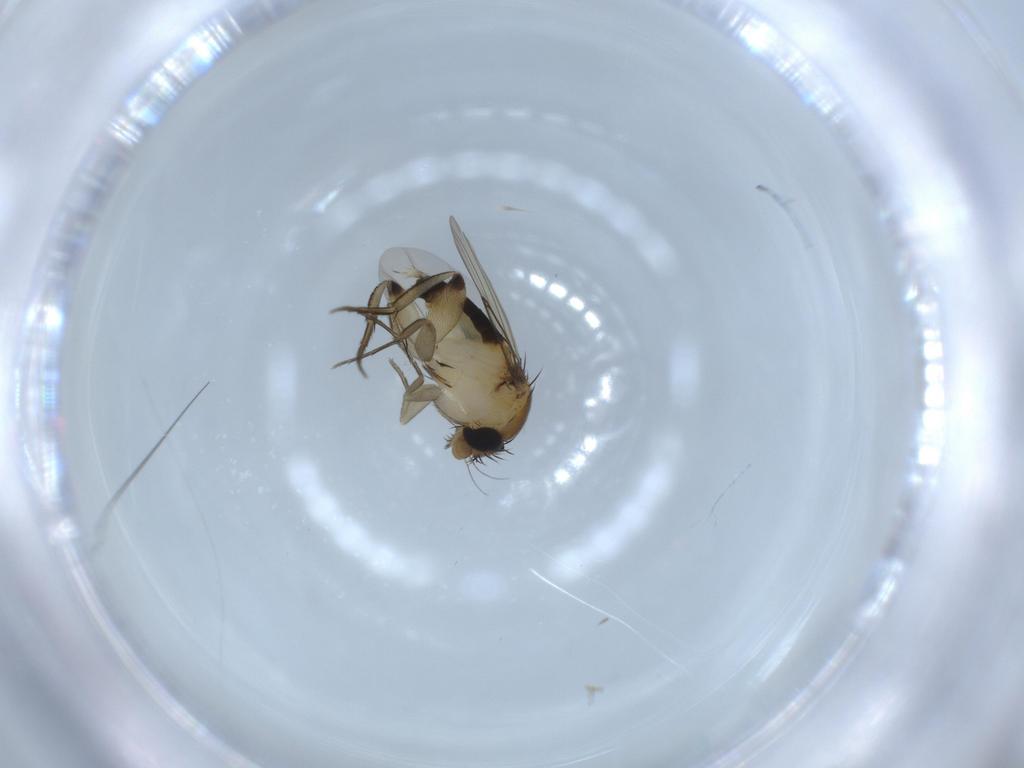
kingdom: Animalia
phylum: Arthropoda
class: Insecta
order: Diptera
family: Phoridae
